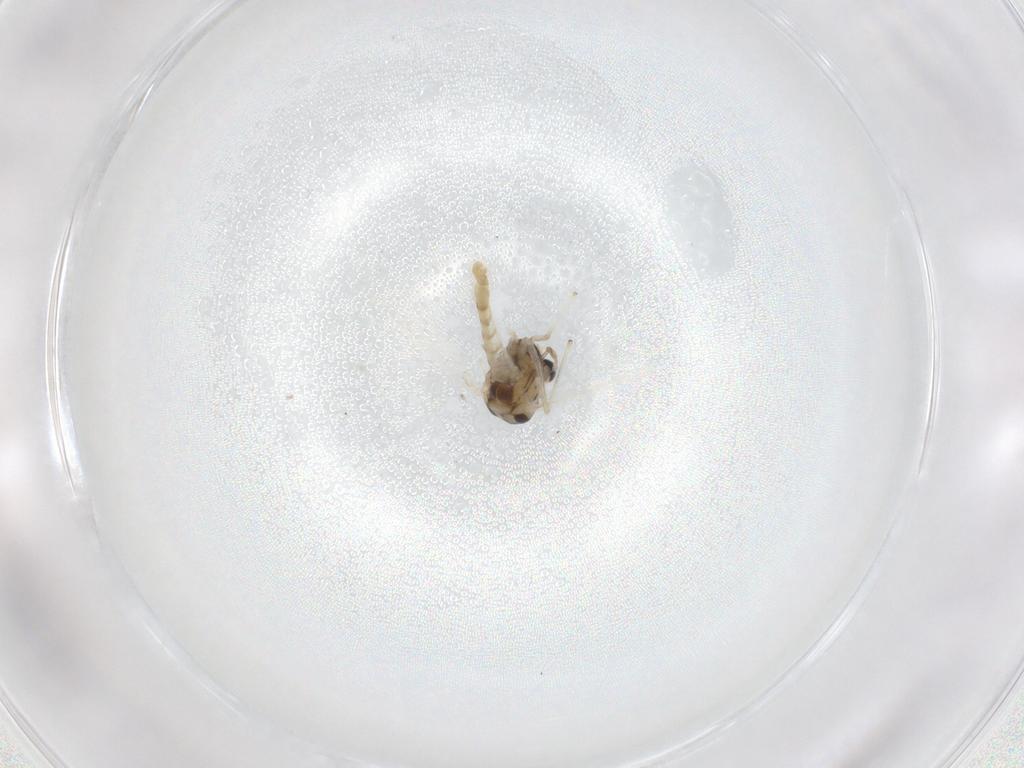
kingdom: Animalia
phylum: Arthropoda
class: Insecta
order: Diptera
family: Chironomidae
